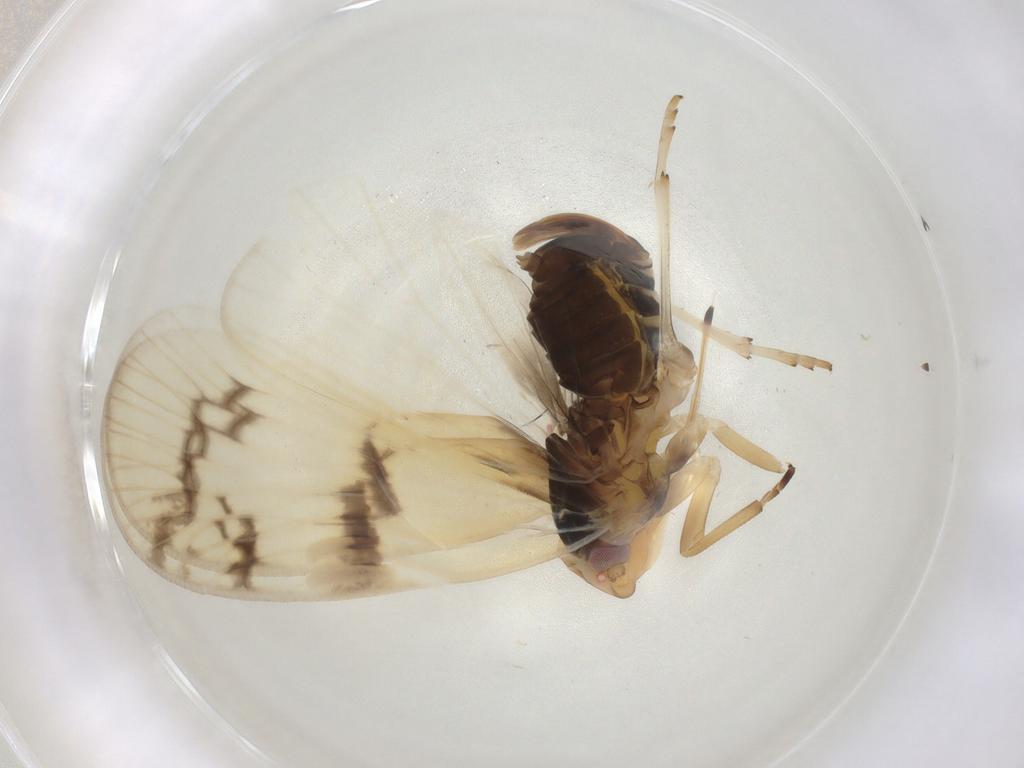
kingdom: Animalia
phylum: Arthropoda
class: Insecta
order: Hemiptera
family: Cixiidae
